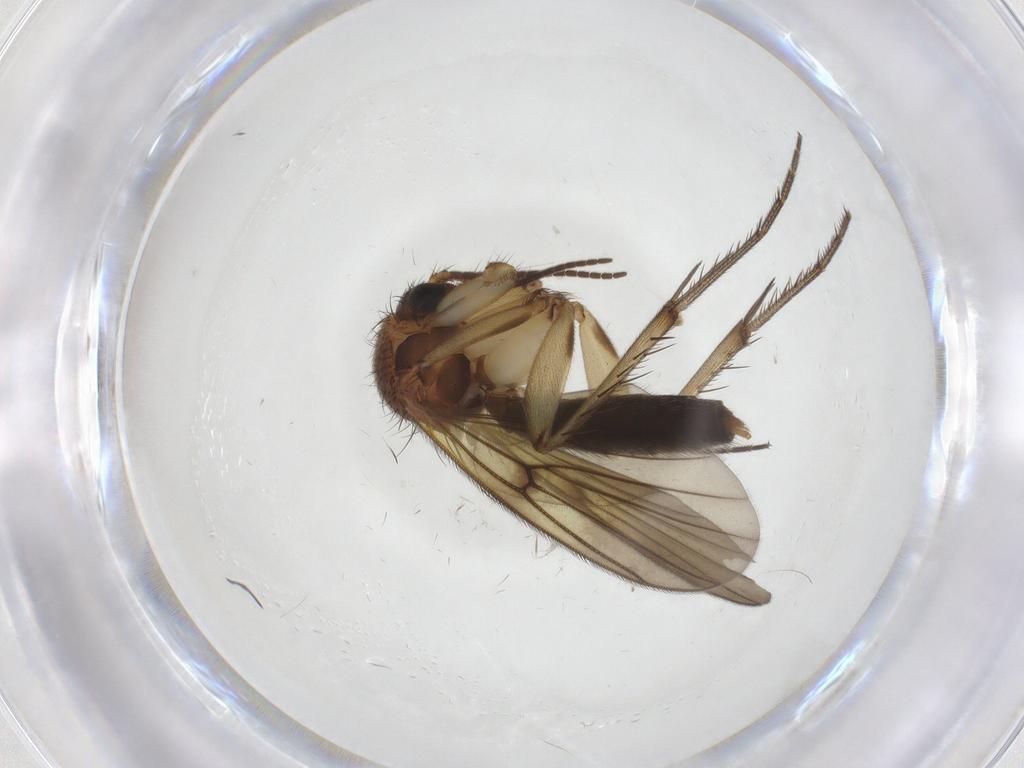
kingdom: Animalia
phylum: Arthropoda
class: Insecta
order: Diptera
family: Mycetophilidae
